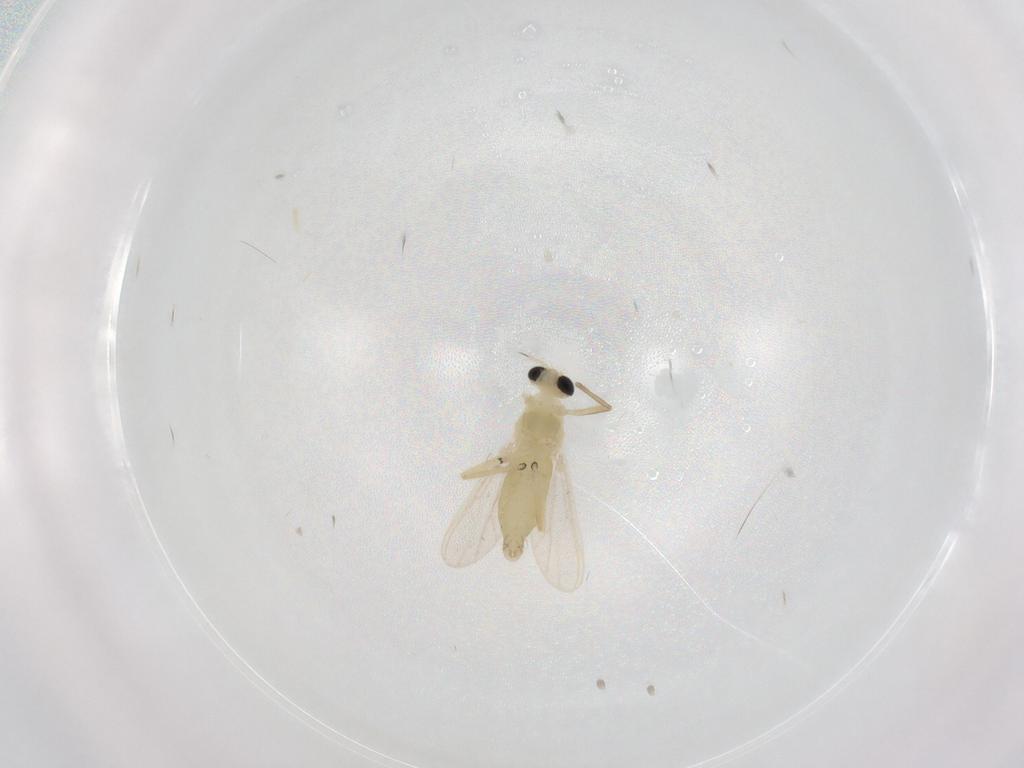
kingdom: Animalia
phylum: Arthropoda
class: Insecta
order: Diptera
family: Chironomidae
